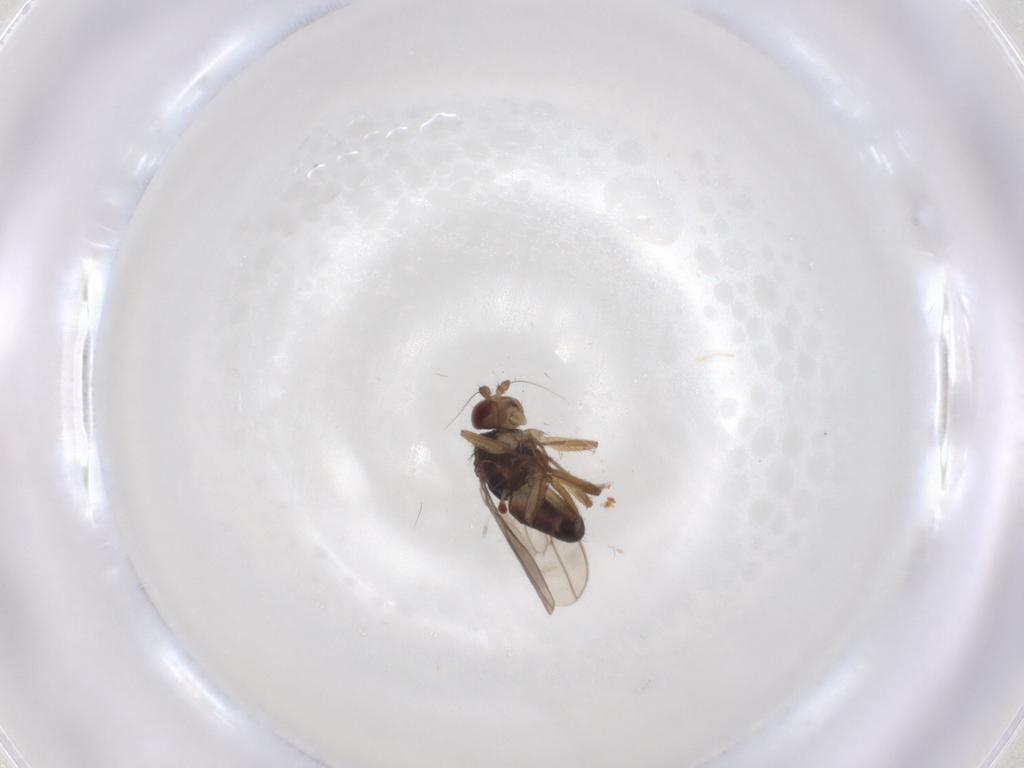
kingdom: Animalia
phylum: Arthropoda
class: Insecta
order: Diptera
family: Sphaeroceridae
